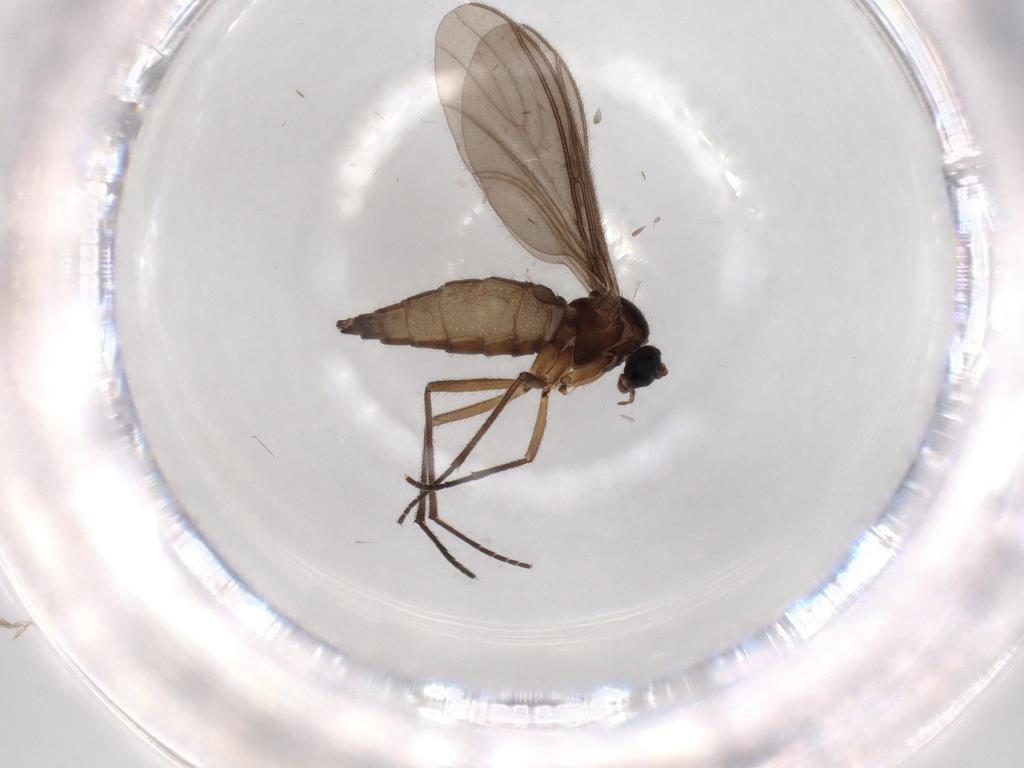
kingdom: Animalia
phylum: Arthropoda
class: Insecta
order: Diptera
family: Sciaridae
